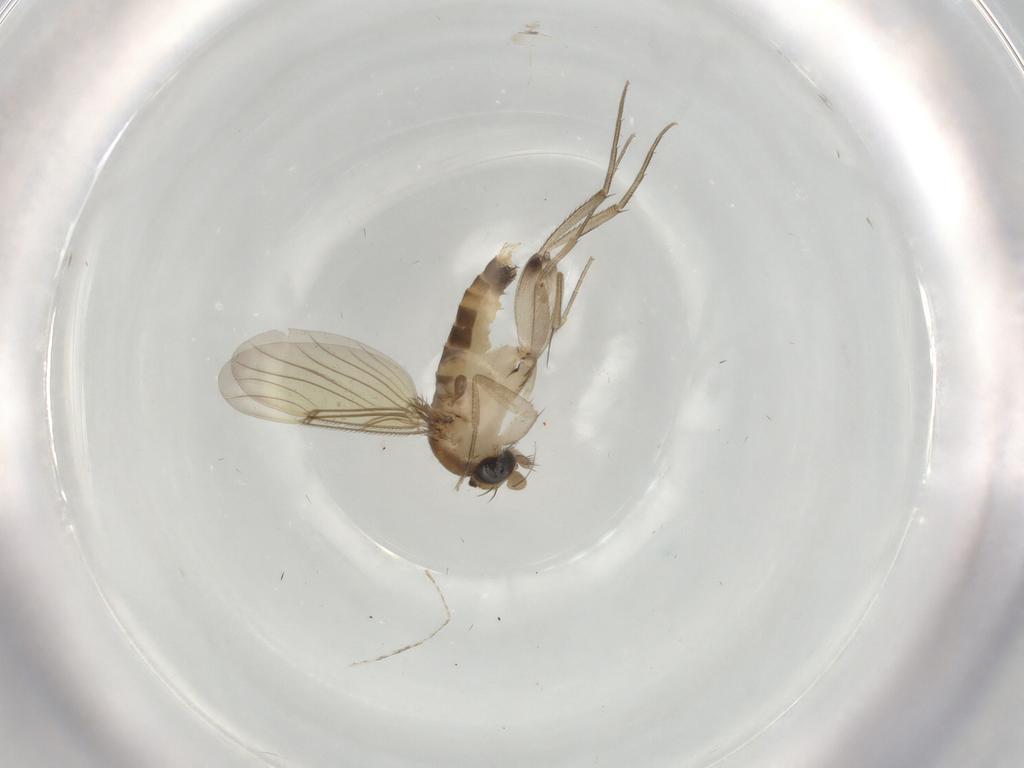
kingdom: Animalia
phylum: Arthropoda
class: Insecta
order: Diptera
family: Phoridae
